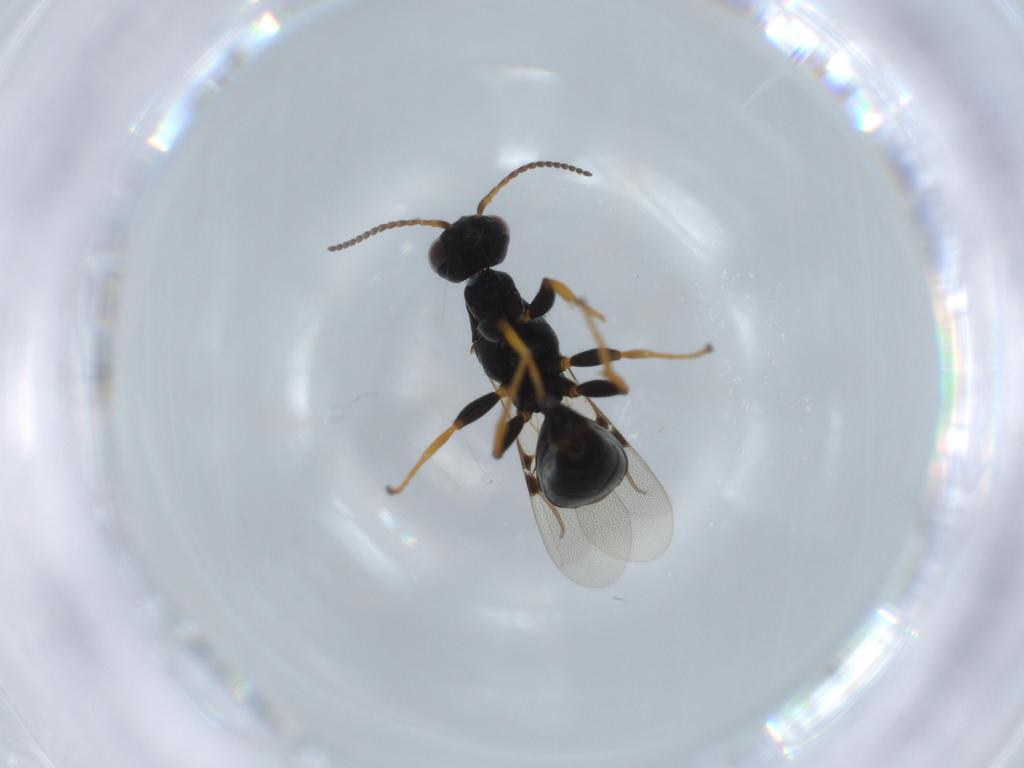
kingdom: Animalia
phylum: Arthropoda
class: Insecta
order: Hymenoptera
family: Bethylidae
